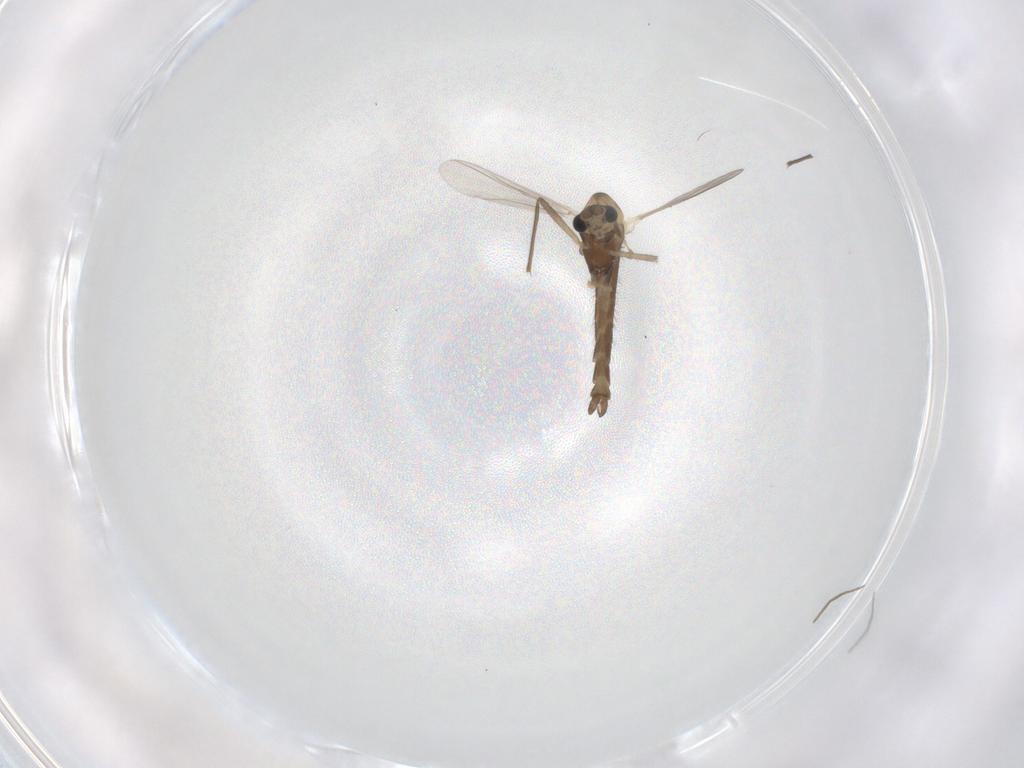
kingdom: Animalia
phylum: Arthropoda
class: Insecta
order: Diptera
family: Chironomidae
